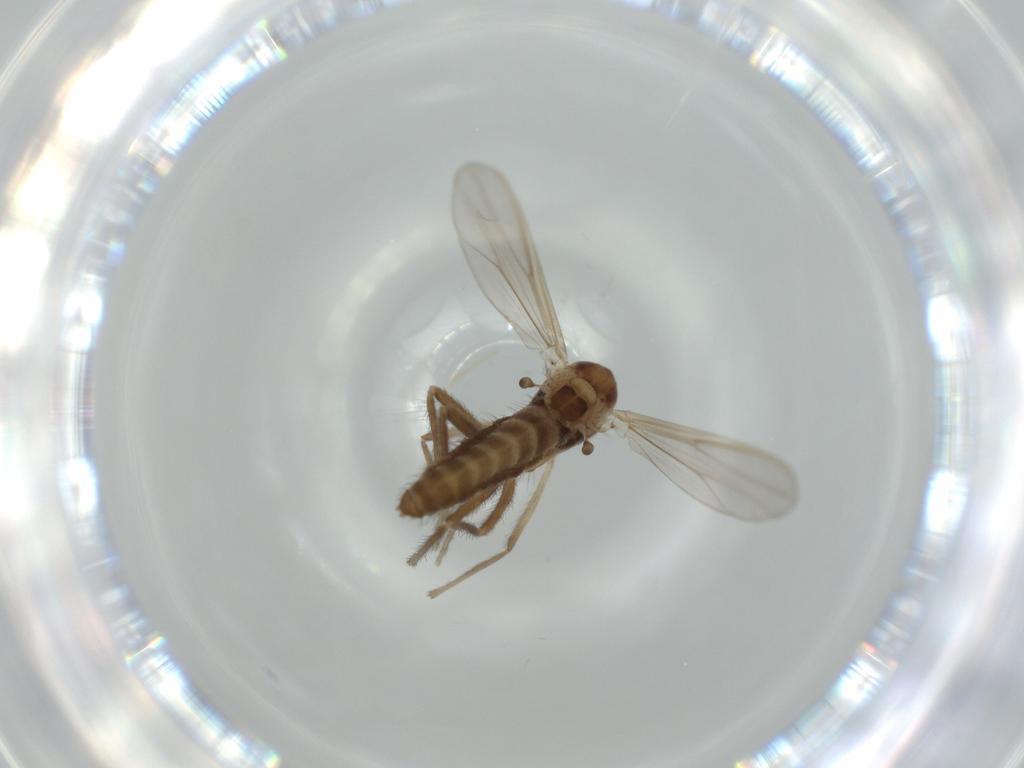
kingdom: Animalia
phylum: Arthropoda
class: Insecta
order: Diptera
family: Chironomidae
